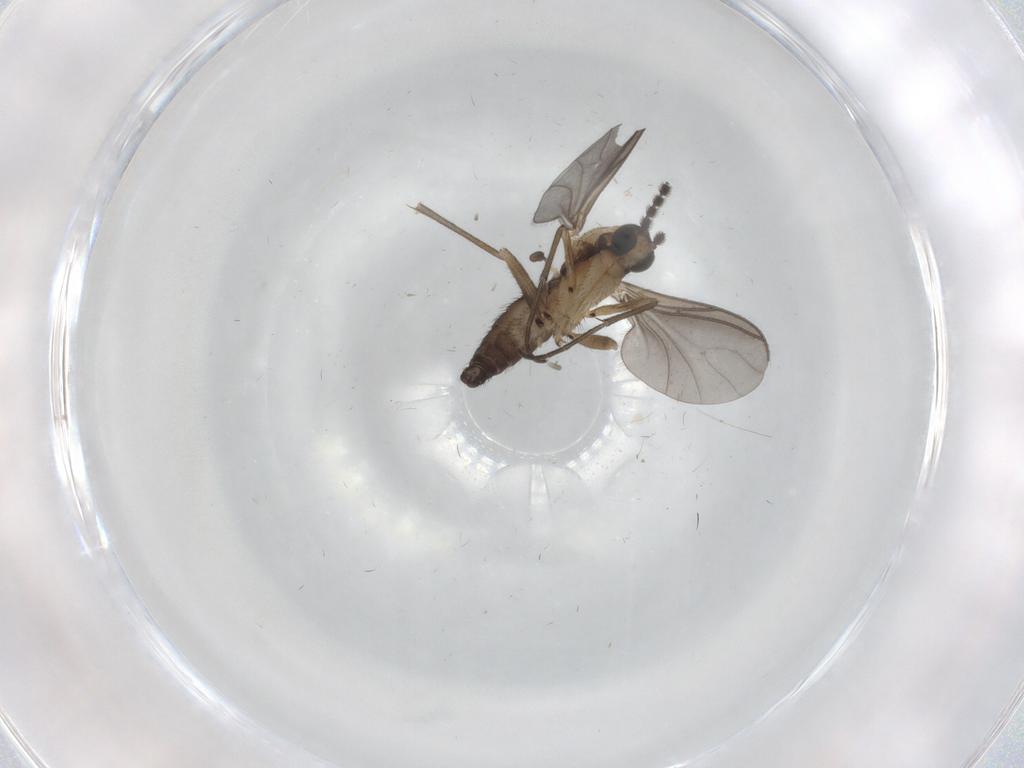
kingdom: Animalia
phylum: Arthropoda
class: Insecta
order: Diptera
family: Sciaridae
